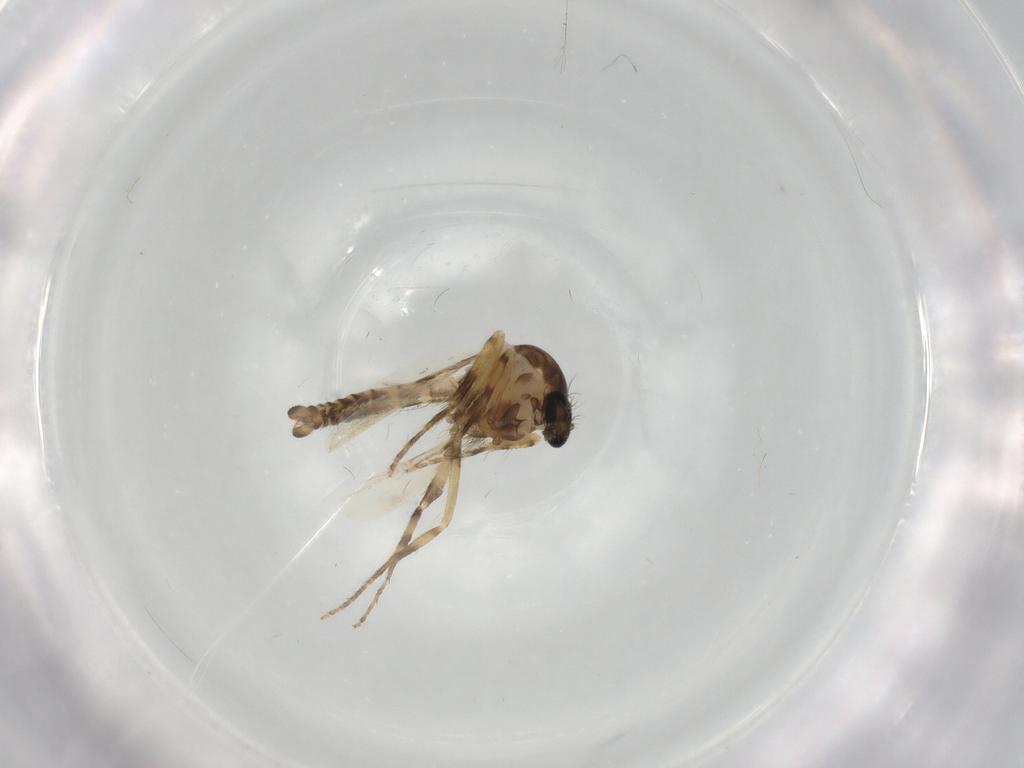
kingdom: Animalia
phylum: Arthropoda
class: Insecta
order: Diptera
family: Ceratopogonidae
